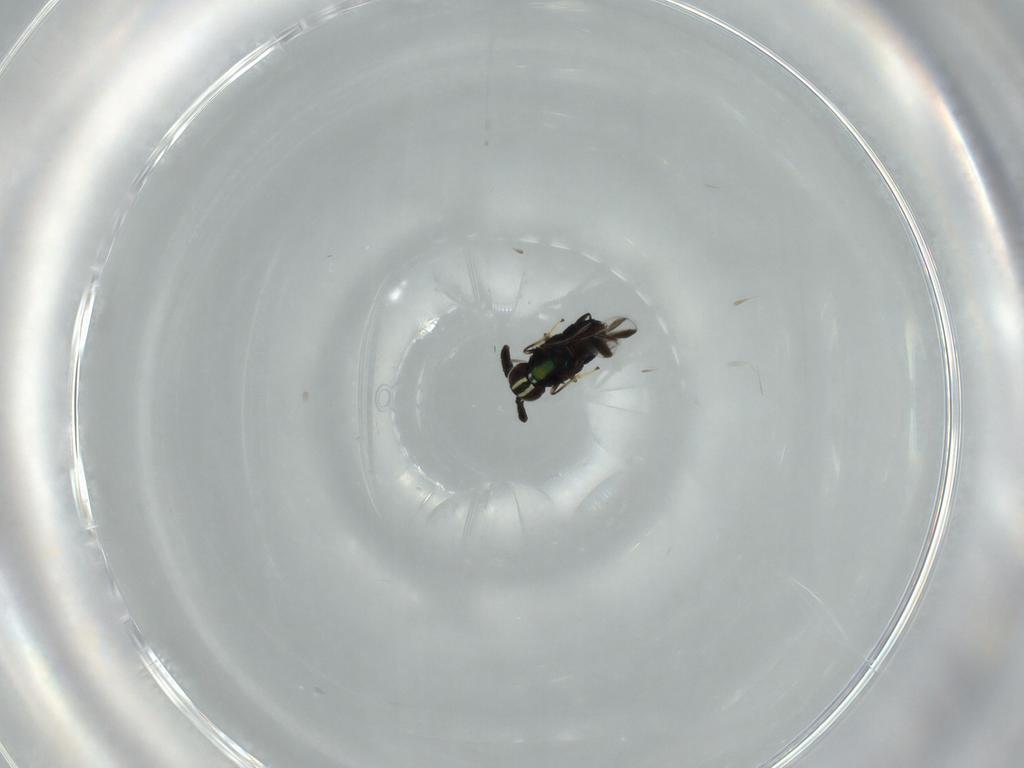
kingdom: Animalia
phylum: Arthropoda
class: Insecta
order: Hymenoptera
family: Encyrtidae
